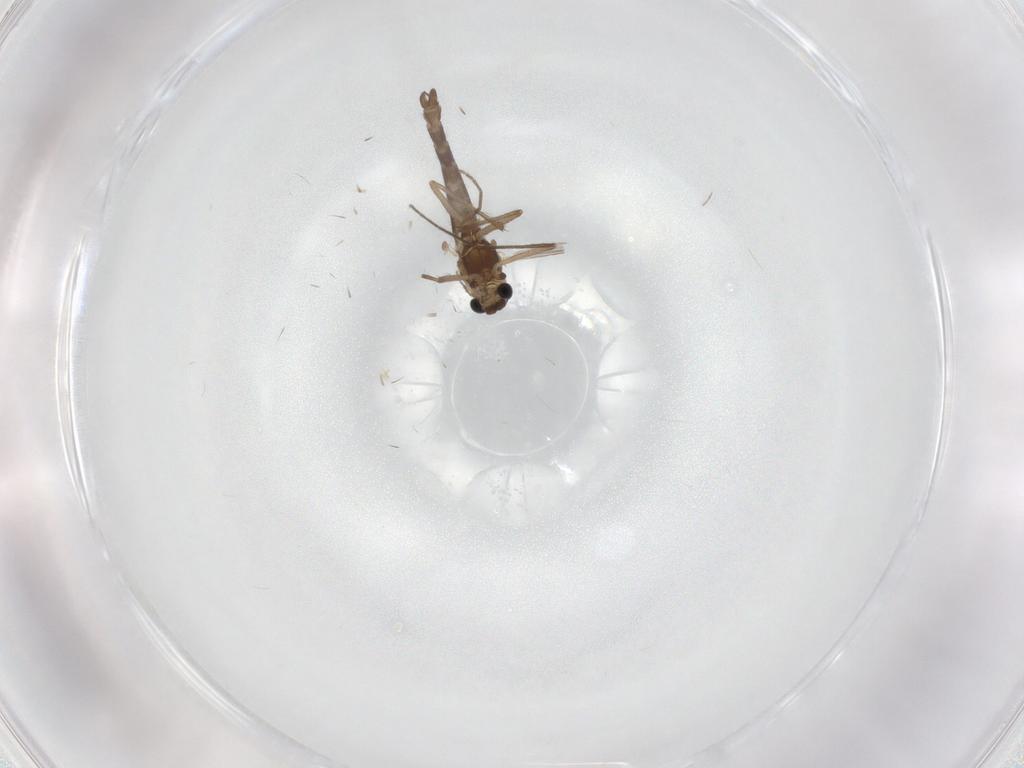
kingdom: Animalia
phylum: Arthropoda
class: Insecta
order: Diptera
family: Chironomidae
